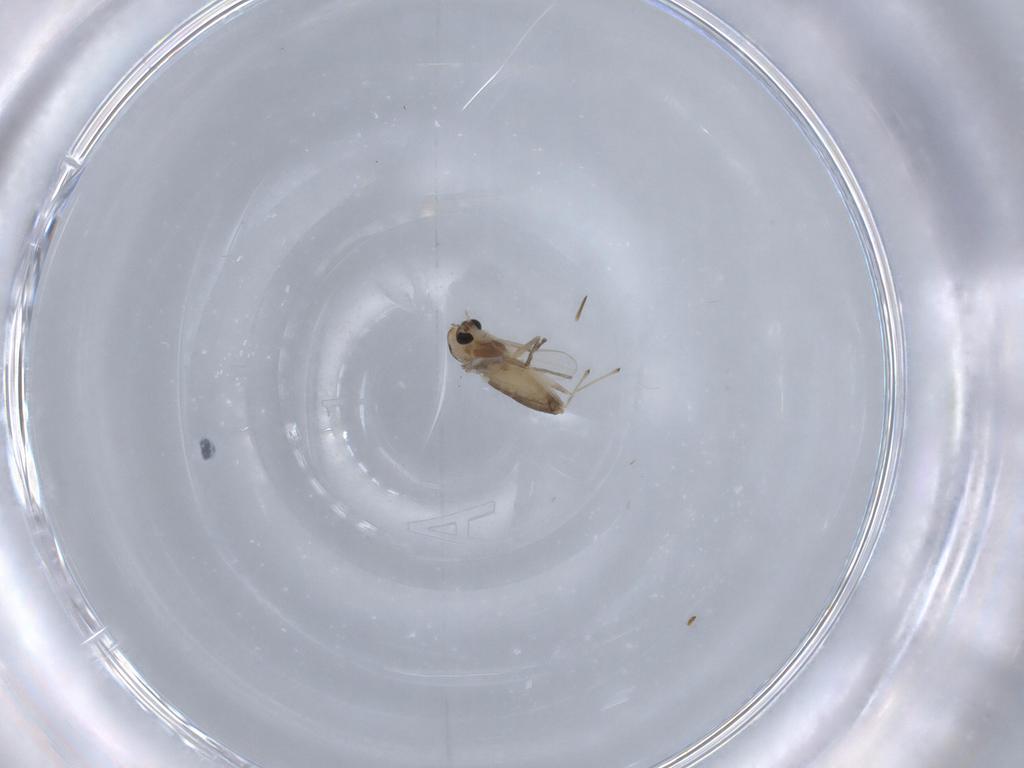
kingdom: Animalia
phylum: Arthropoda
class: Insecta
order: Diptera
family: Chironomidae
